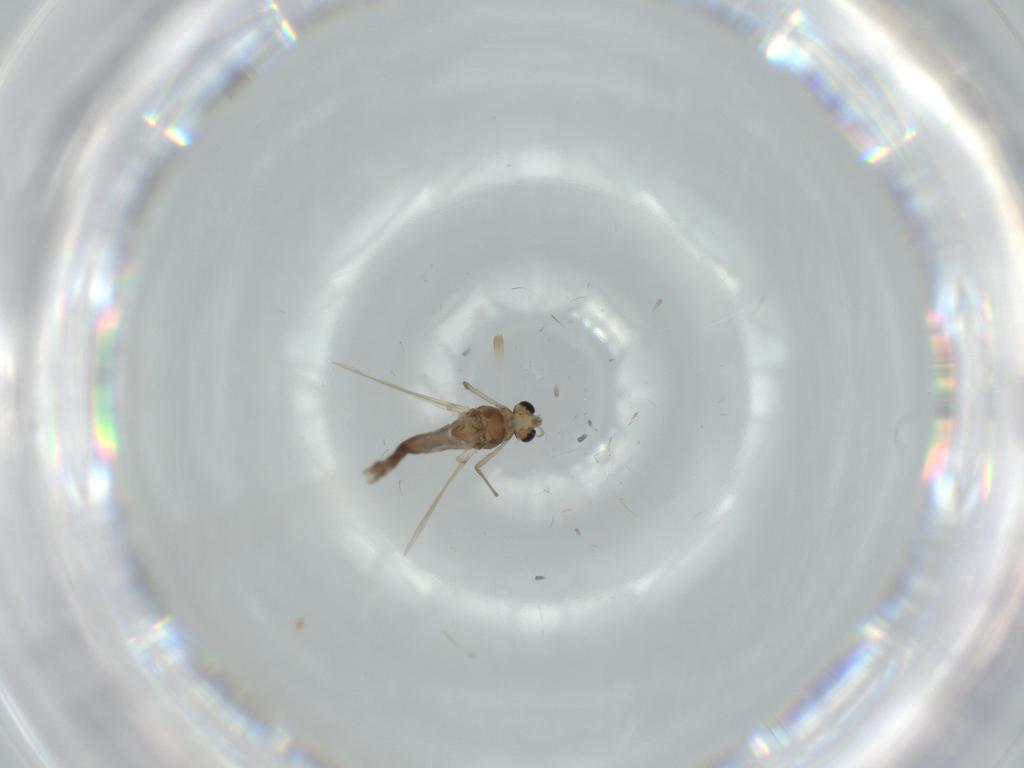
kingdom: Animalia
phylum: Arthropoda
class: Insecta
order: Diptera
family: Chironomidae
